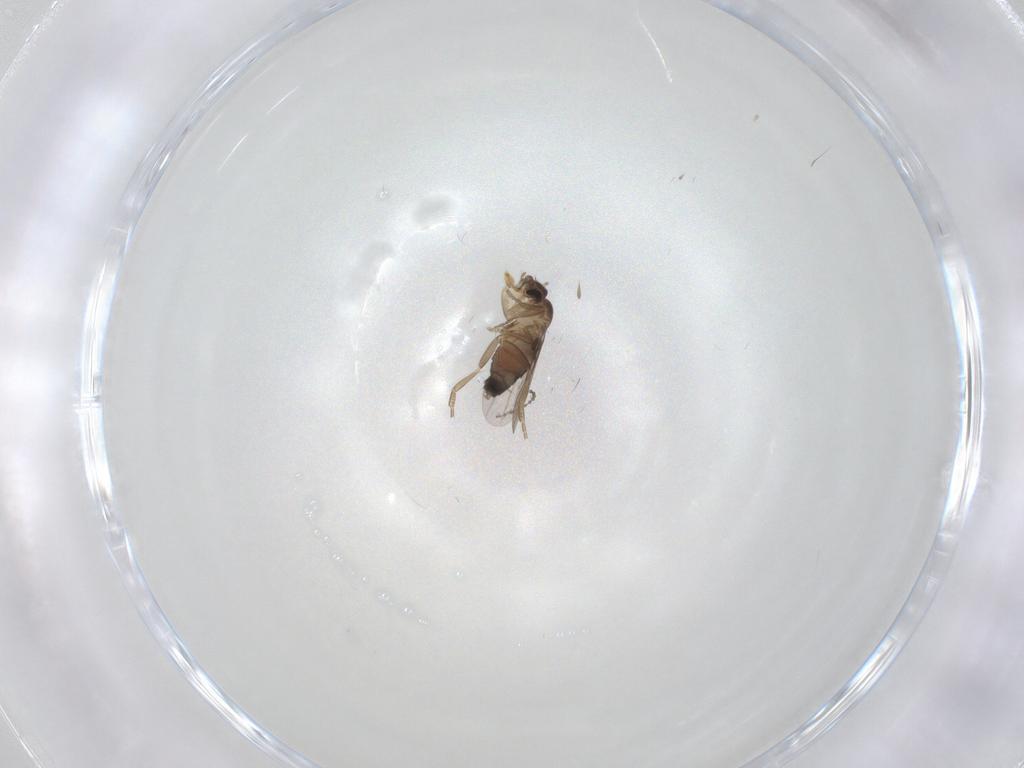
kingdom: Animalia
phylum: Arthropoda
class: Insecta
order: Diptera
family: Phoridae
